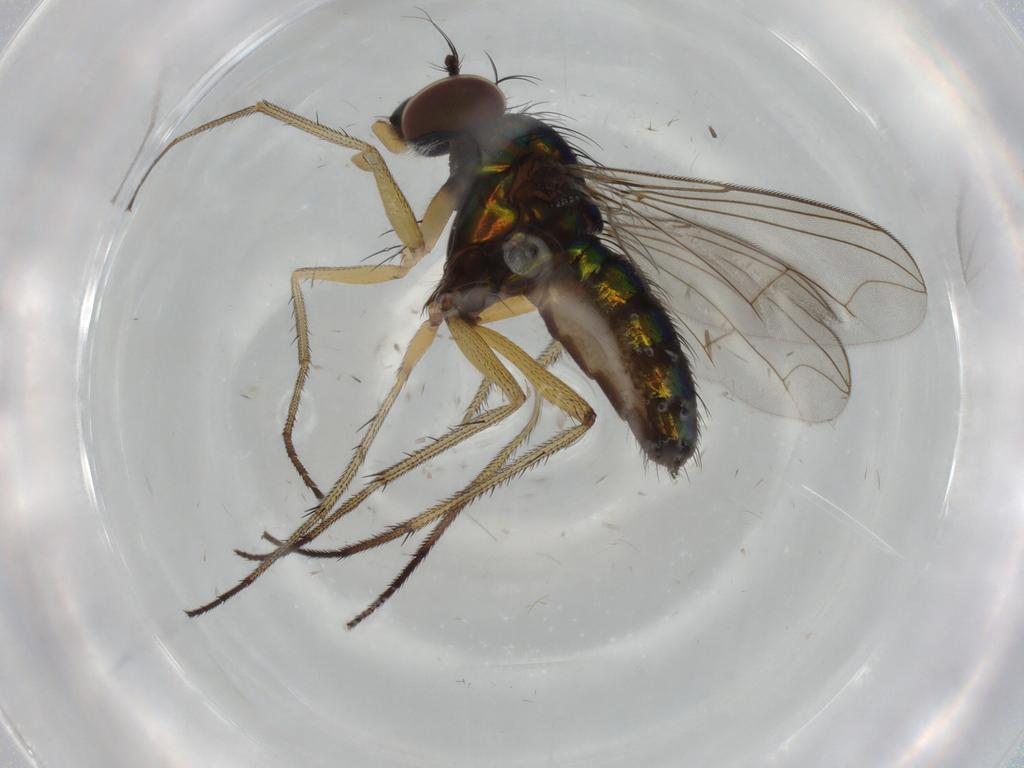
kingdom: Animalia
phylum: Arthropoda
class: Insecta
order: Diptera
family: Dolichopodidae
